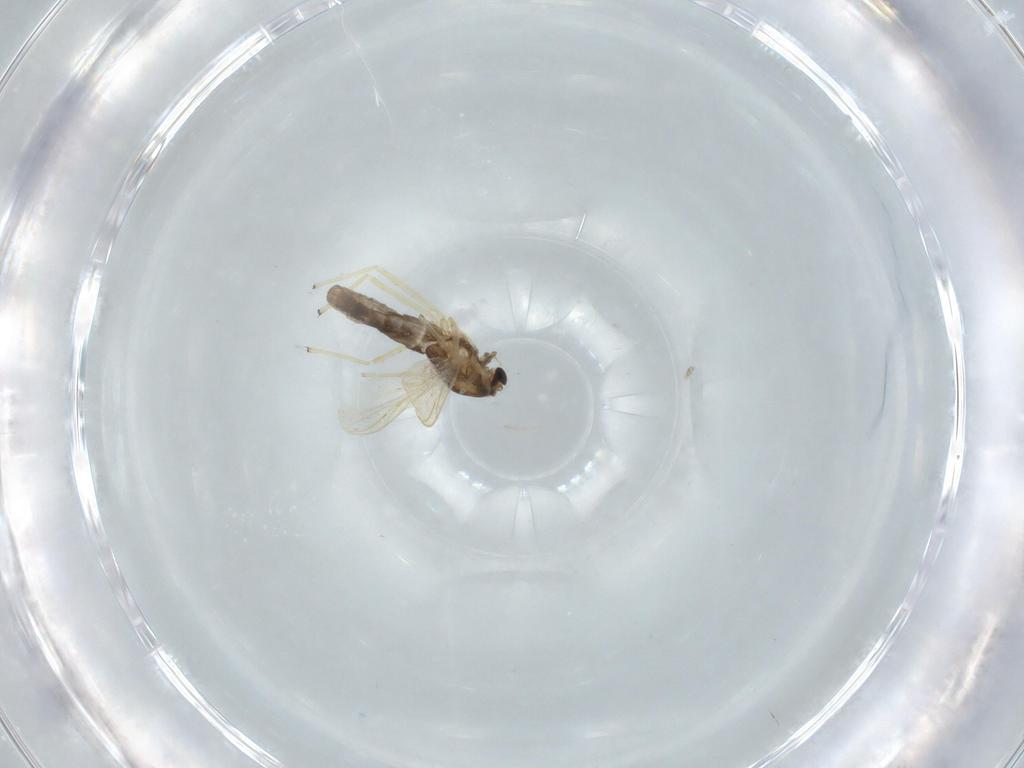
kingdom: Animalia
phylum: Arthropoda
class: Insecta
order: Diptera
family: Chironomidae
